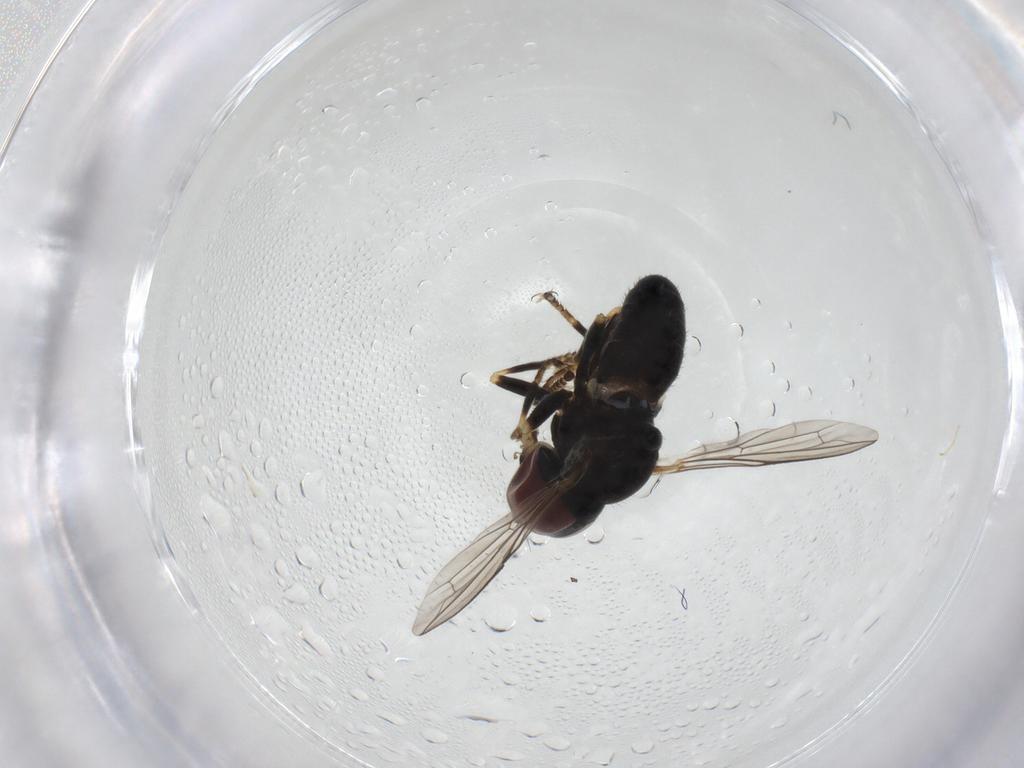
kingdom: Animalia
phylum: Arthropoda
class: Insecta
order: Diptera
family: Pipunculidae
